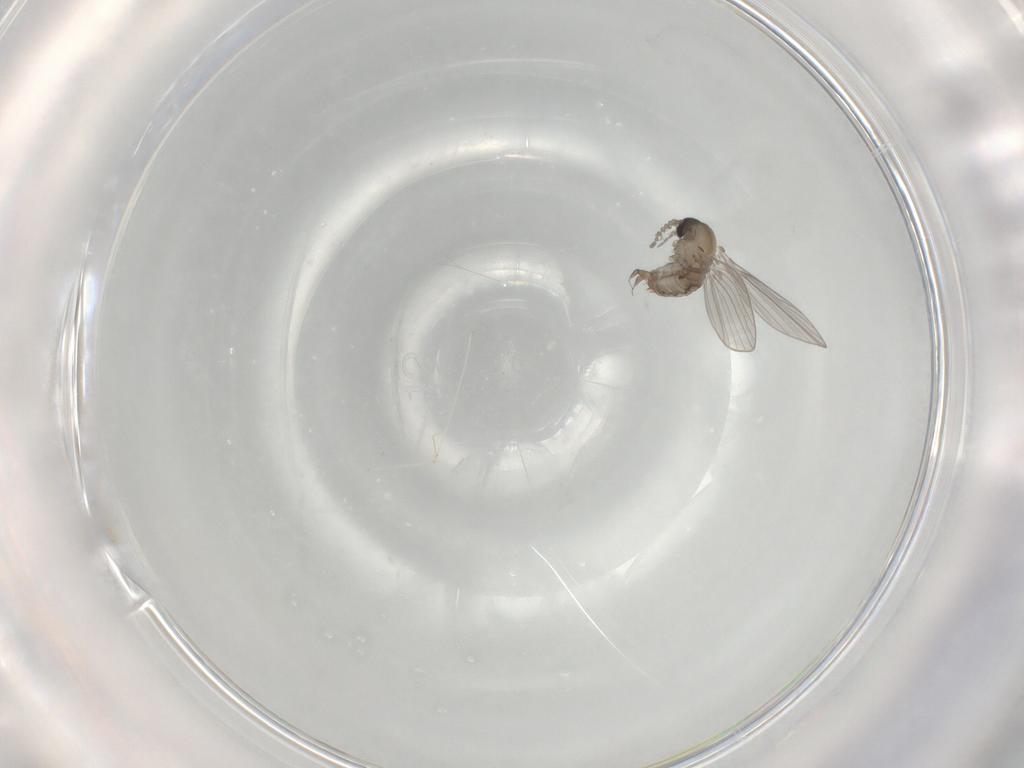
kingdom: Animalia
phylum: Arthropoda
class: Insecta
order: Diptera
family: Psychodidae
